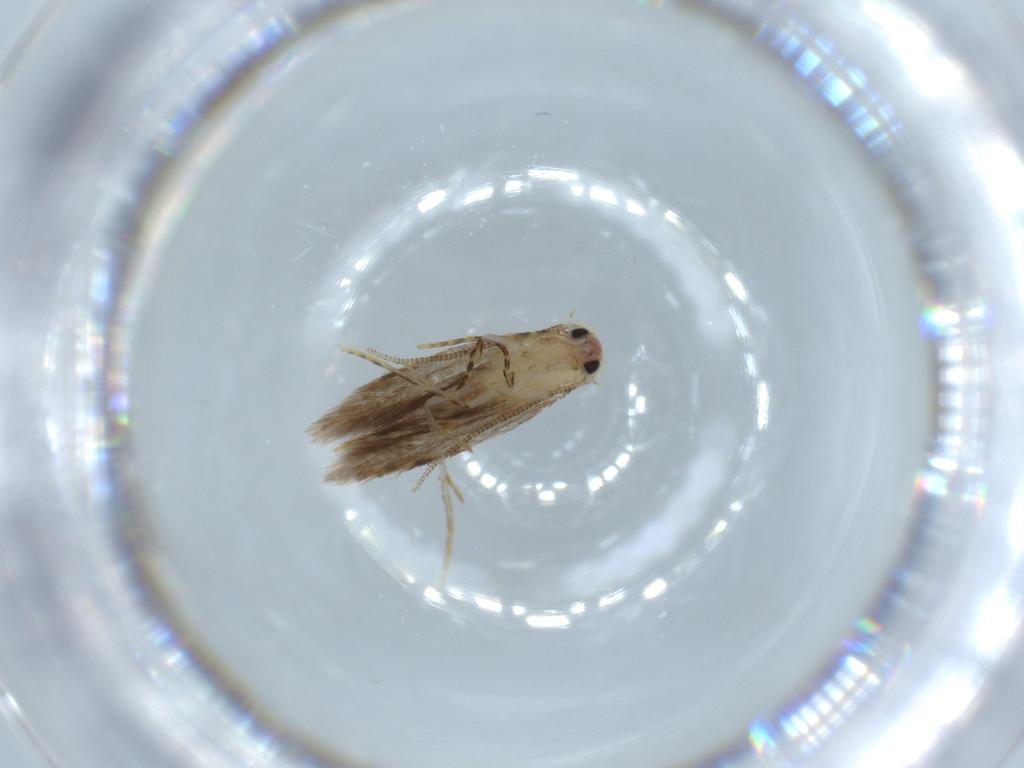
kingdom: Animalia
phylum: Arthropoda
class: Insecta
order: Lepidoptera
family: Tineidae
